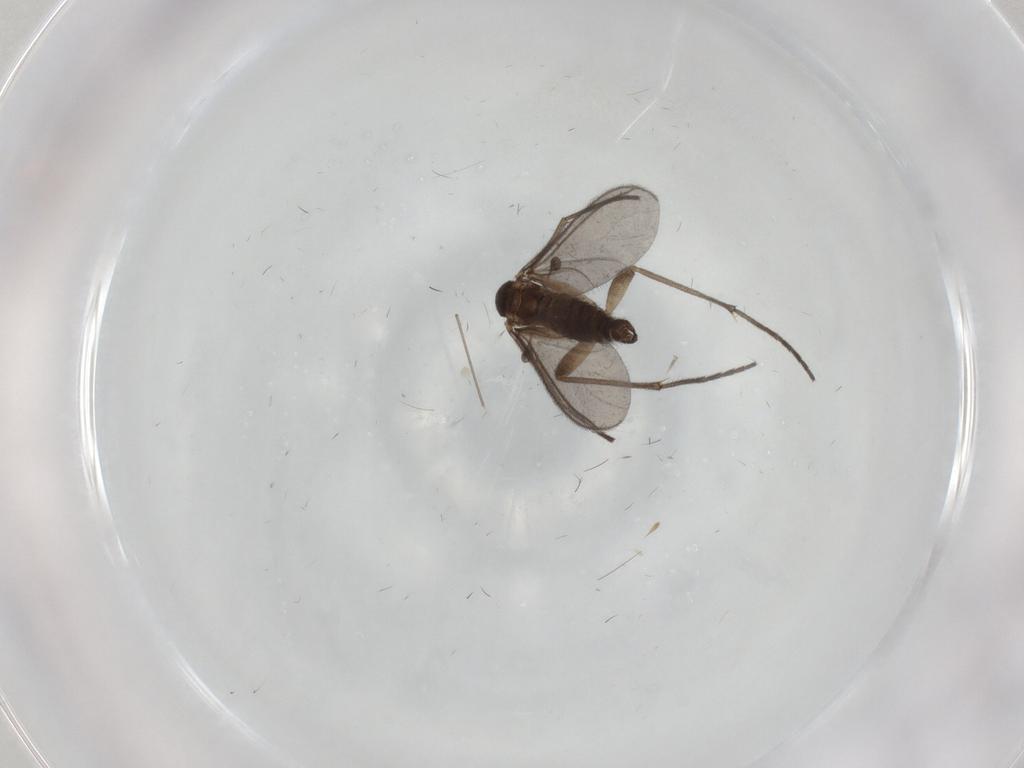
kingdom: Animalia
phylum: Arthropoda
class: Insecta
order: Diptera
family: Sciaridae
